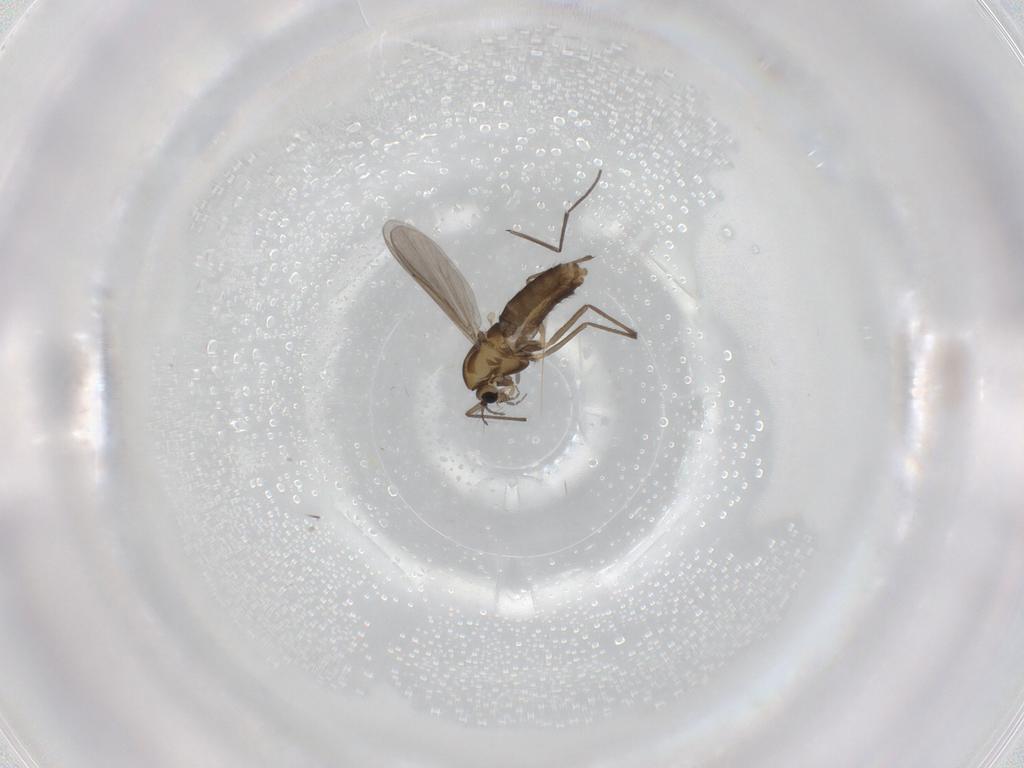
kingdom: Animalia
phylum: Arthropoda
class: Insecta
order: Diptera
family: Chironomidae
